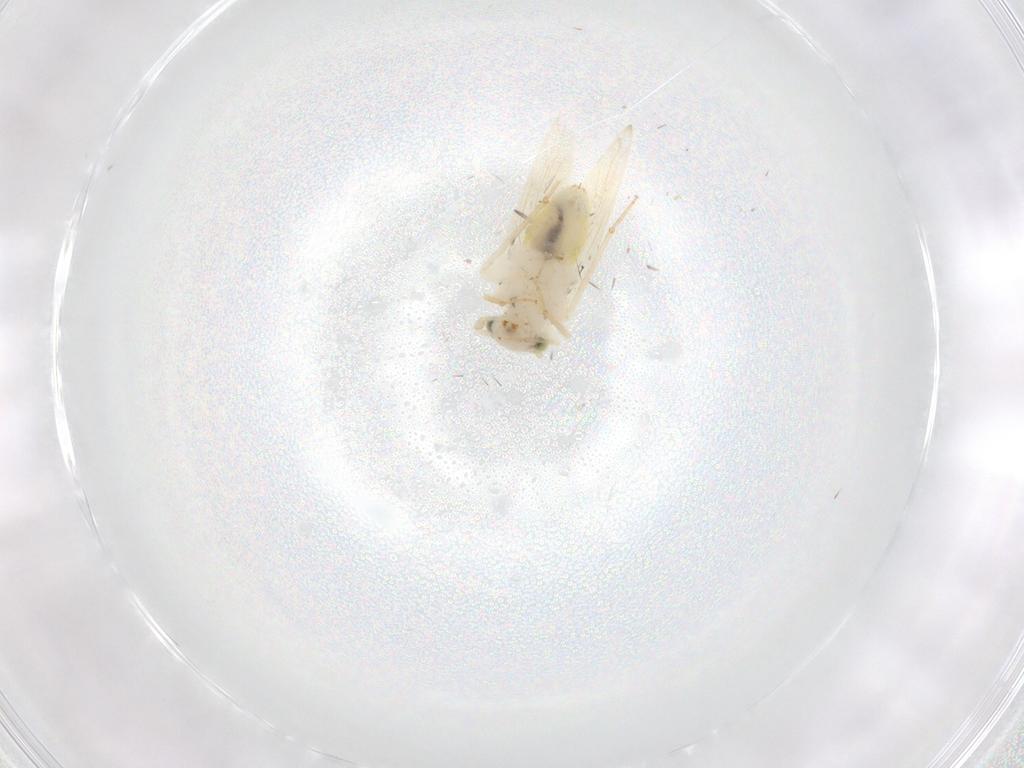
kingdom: Animalia
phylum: Arthropoda
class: Insecta
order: Psocodea
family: Lepidopsocidae
